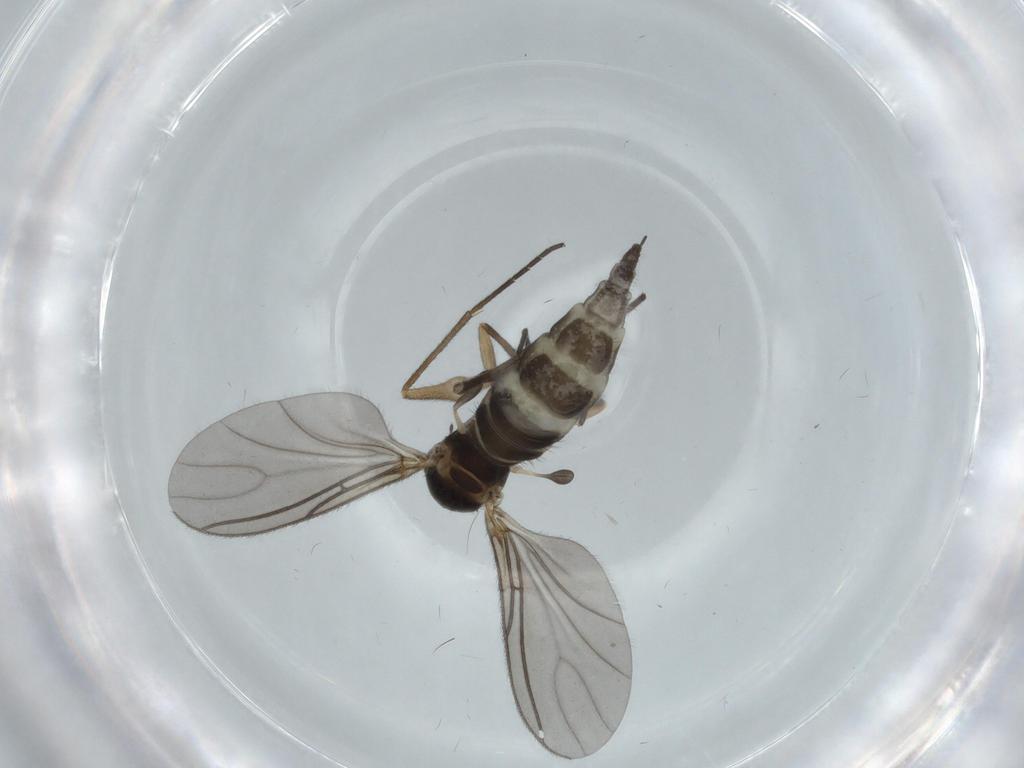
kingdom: Animalia
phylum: Arthropoda
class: Insecta
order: Diptera
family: Sciaridae
